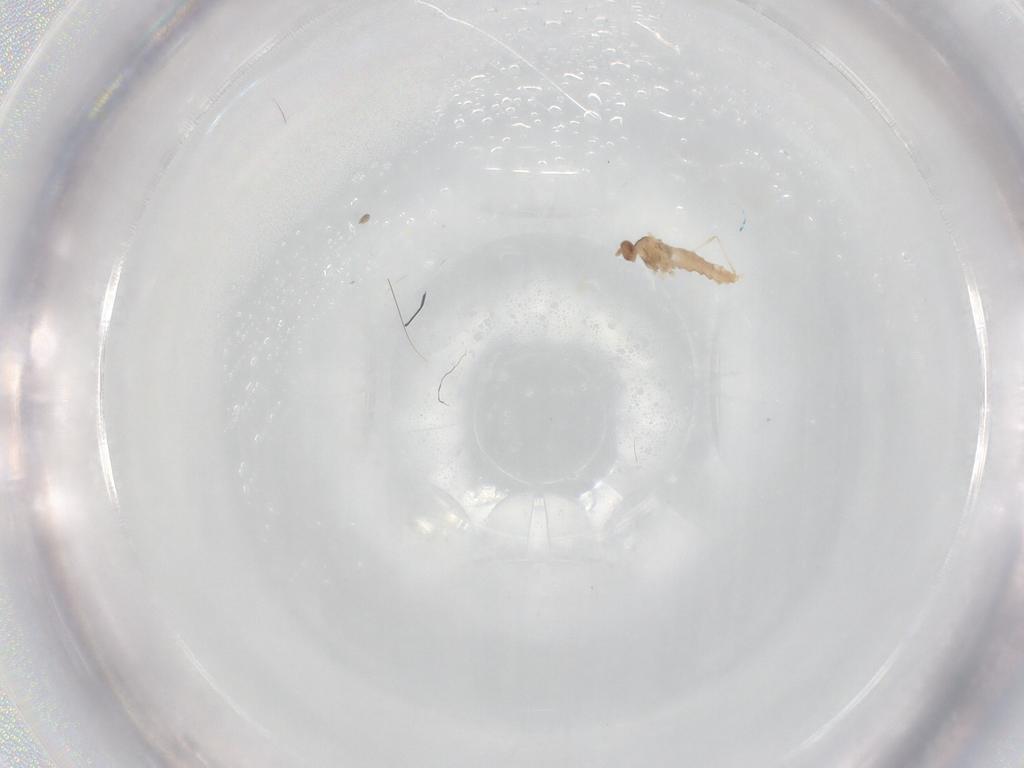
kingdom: Animalia
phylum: Arthropoda
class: Insecta
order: Diptera
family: Cecidomyiidae
